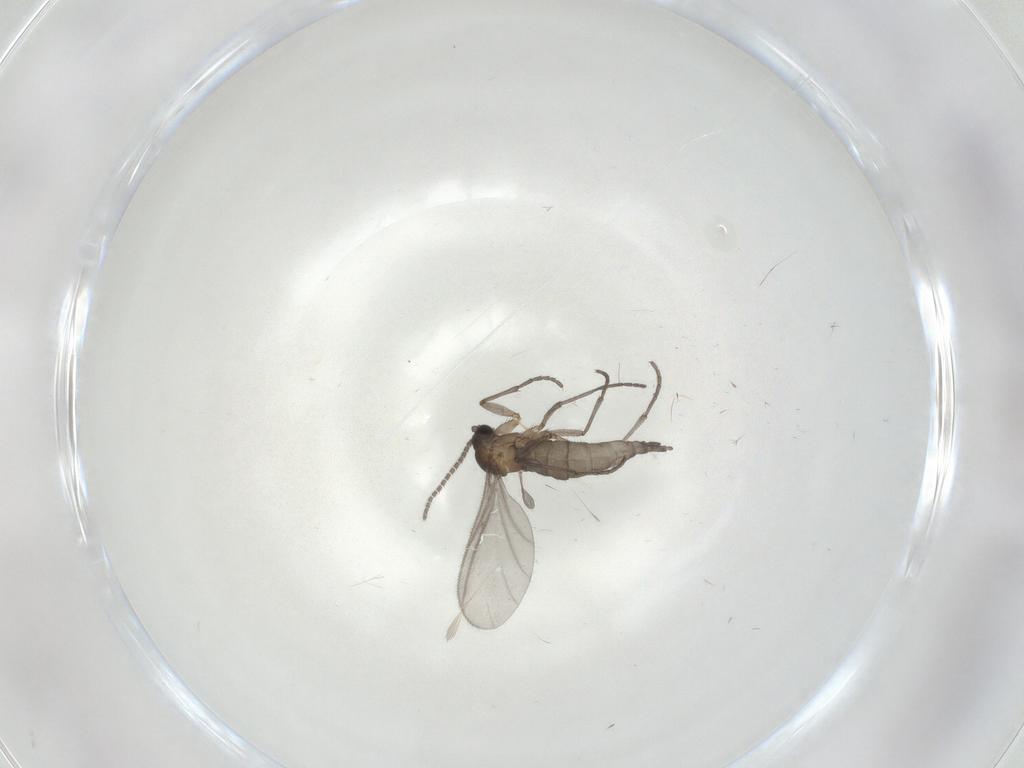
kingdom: Animalia
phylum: Arthropoda
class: Insecta
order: Diptera
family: Sciaridae
